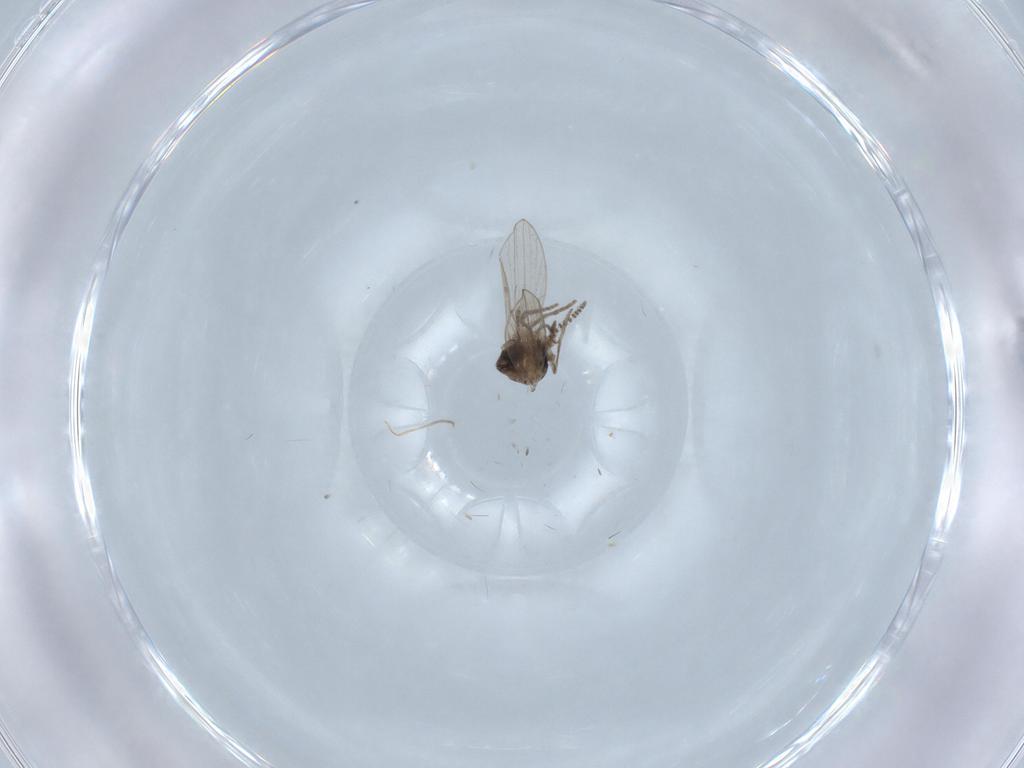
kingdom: Animalia
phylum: Arthropoda
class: Insecta
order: Diptera
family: Psychodidae
